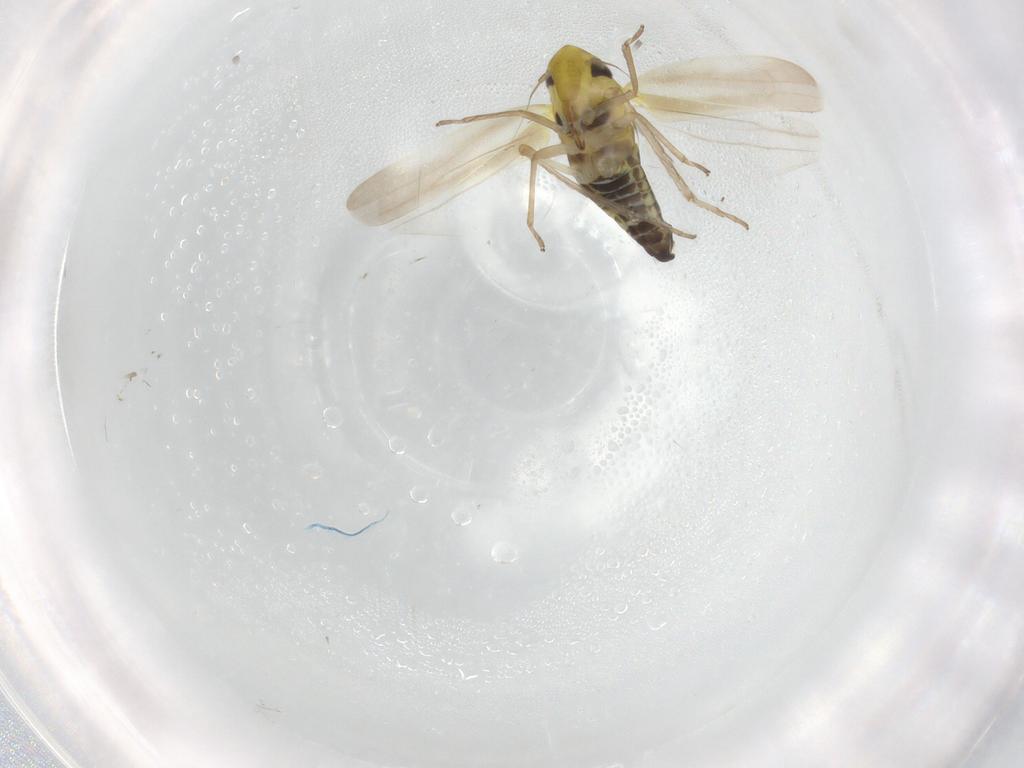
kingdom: Animalia
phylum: Arthropoda
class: Insecta
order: Hemiptera
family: Cicadellidae
